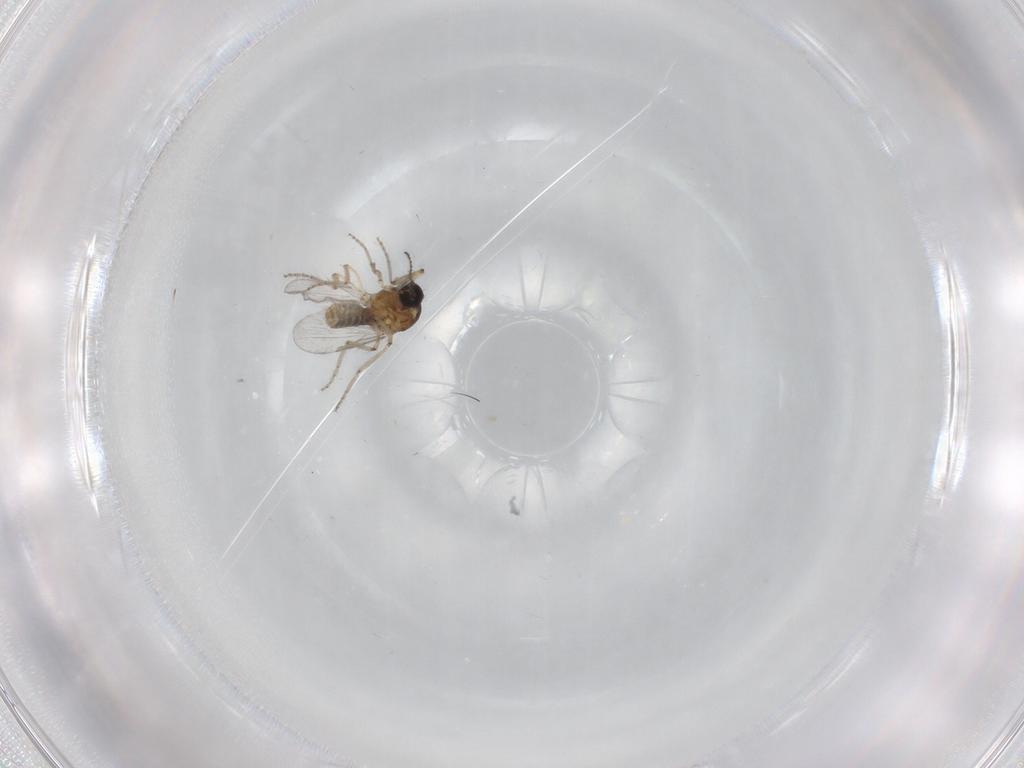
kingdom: Animalia
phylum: Arthropoda
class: Insecta
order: Diptera
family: Ceratopogonidae
